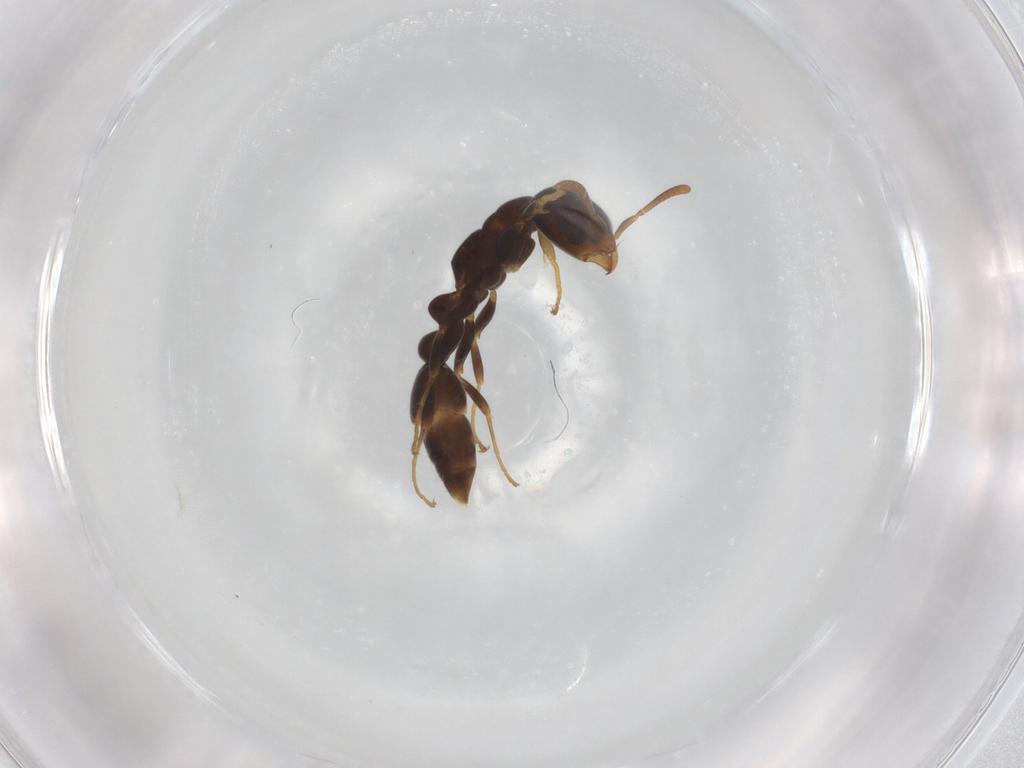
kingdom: Animalia
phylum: Arthropoda
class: Insecta
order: Hymenoptera
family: Formicidae
